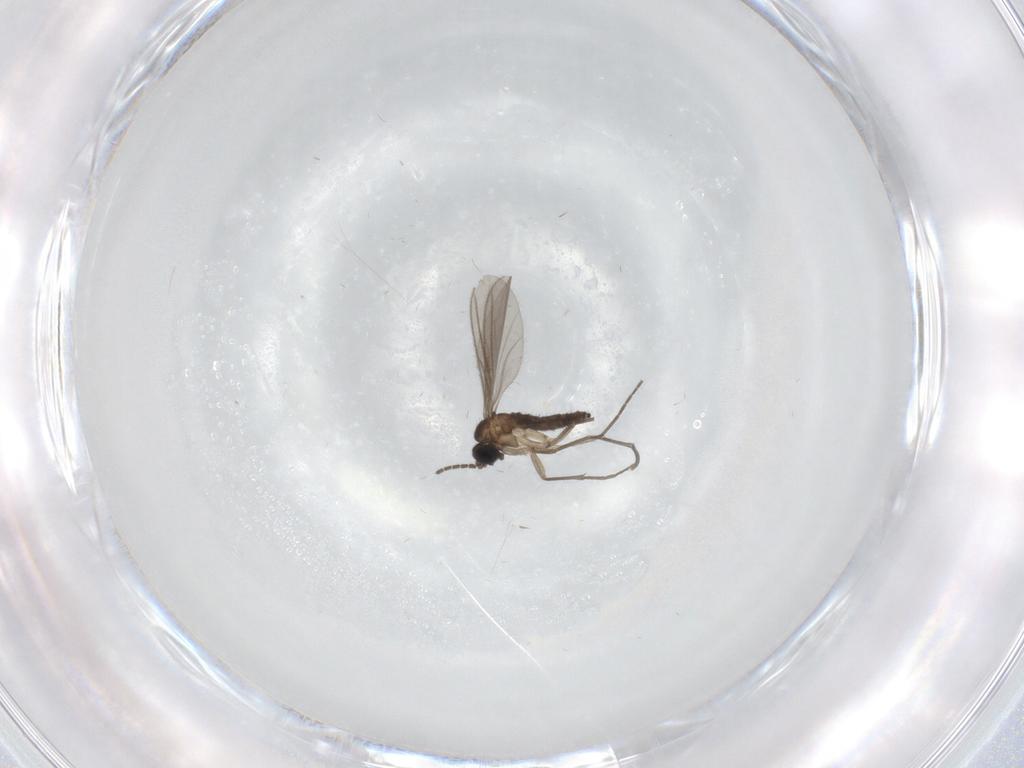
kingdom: Animalia
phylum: Arthropoda
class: Insecta
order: Diptera
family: Sciaridae
